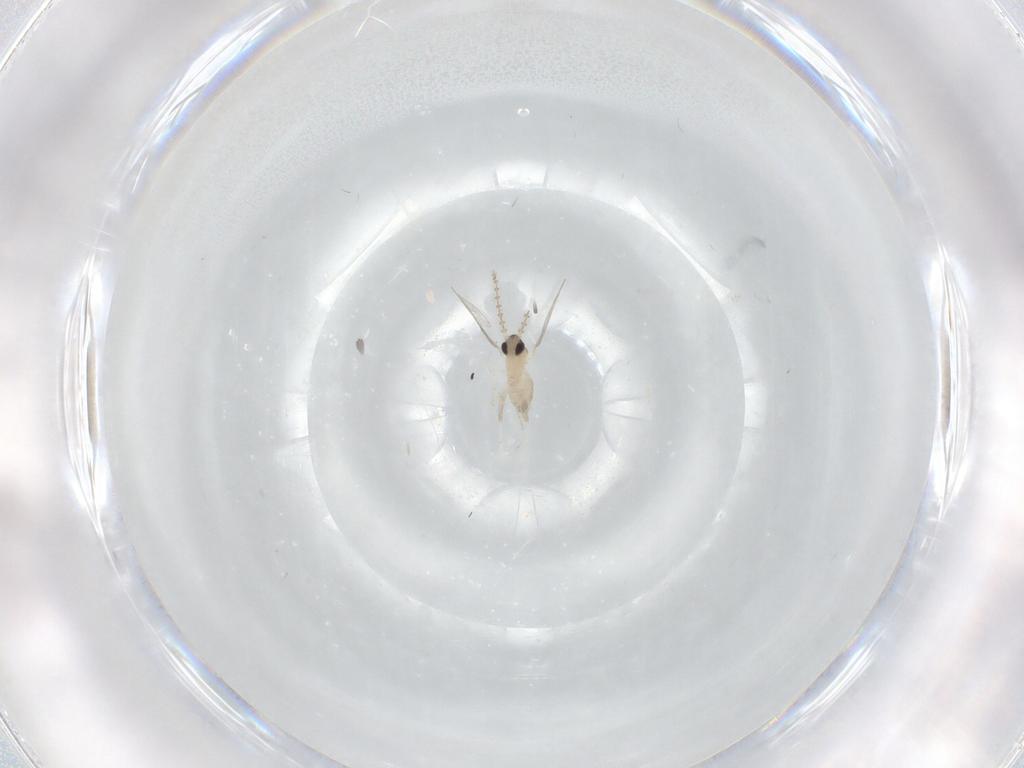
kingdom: Animalia
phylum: Arthropoda
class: Insecta
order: Diptera
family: Cecidomyiidae
